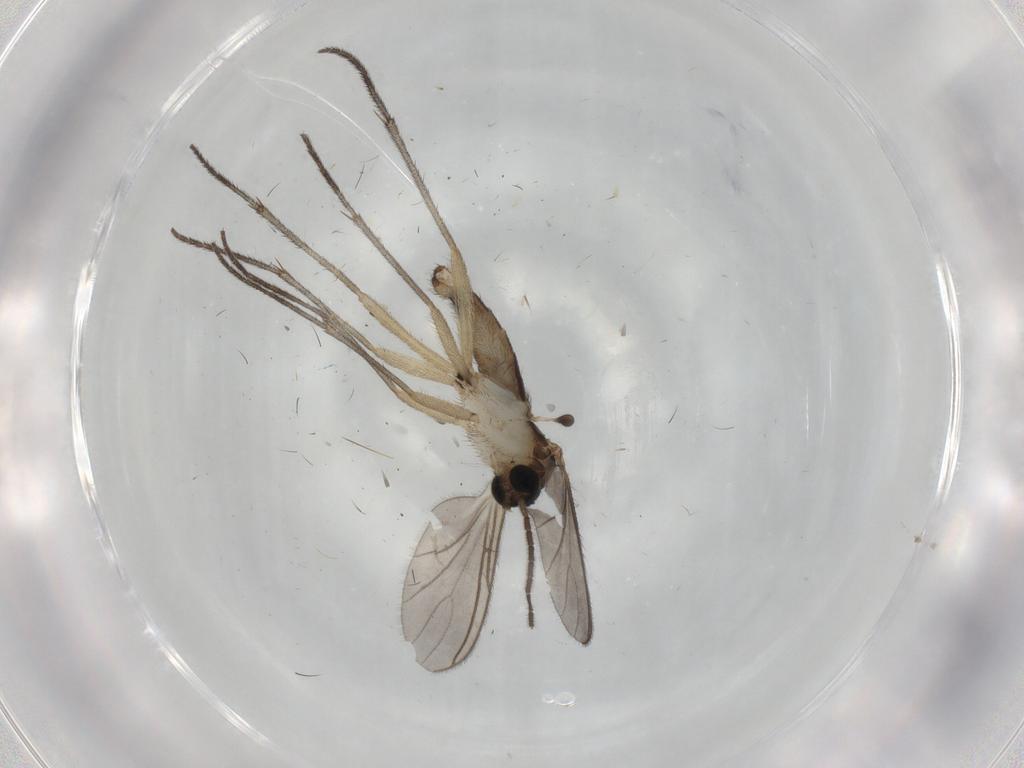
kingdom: Animalia
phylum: Arthropoda
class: Insecta
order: Diptera
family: Sciaridae
